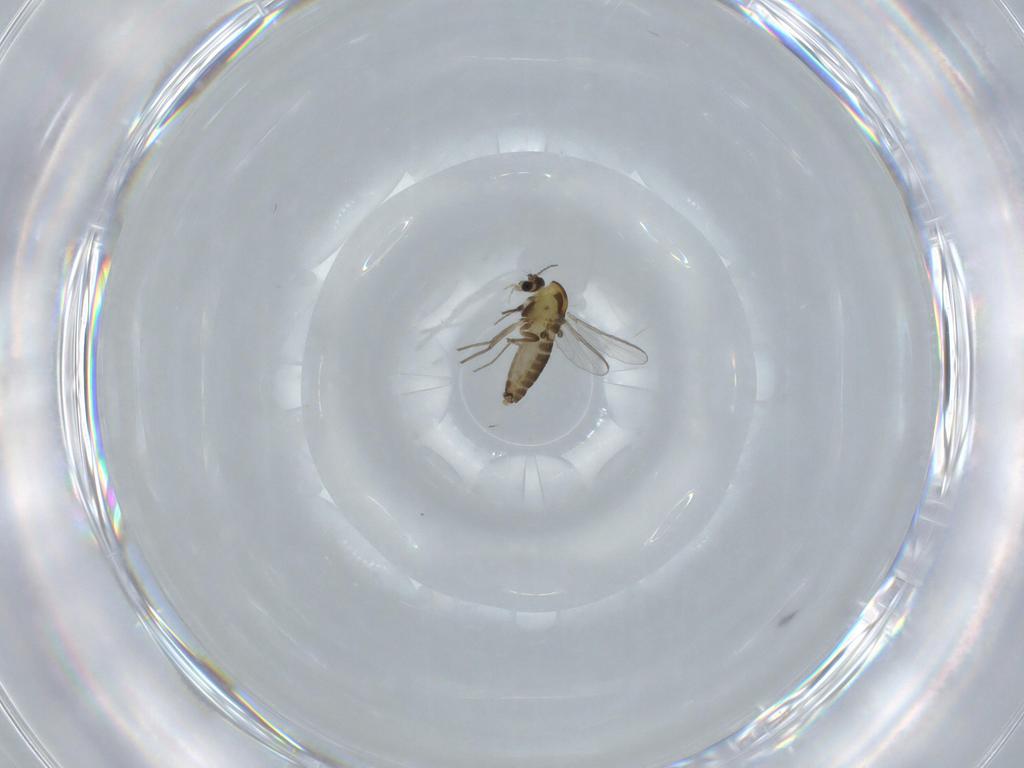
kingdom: Animalia
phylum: Arthropoda
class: Insecta
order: Diptera
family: Chironomidae
